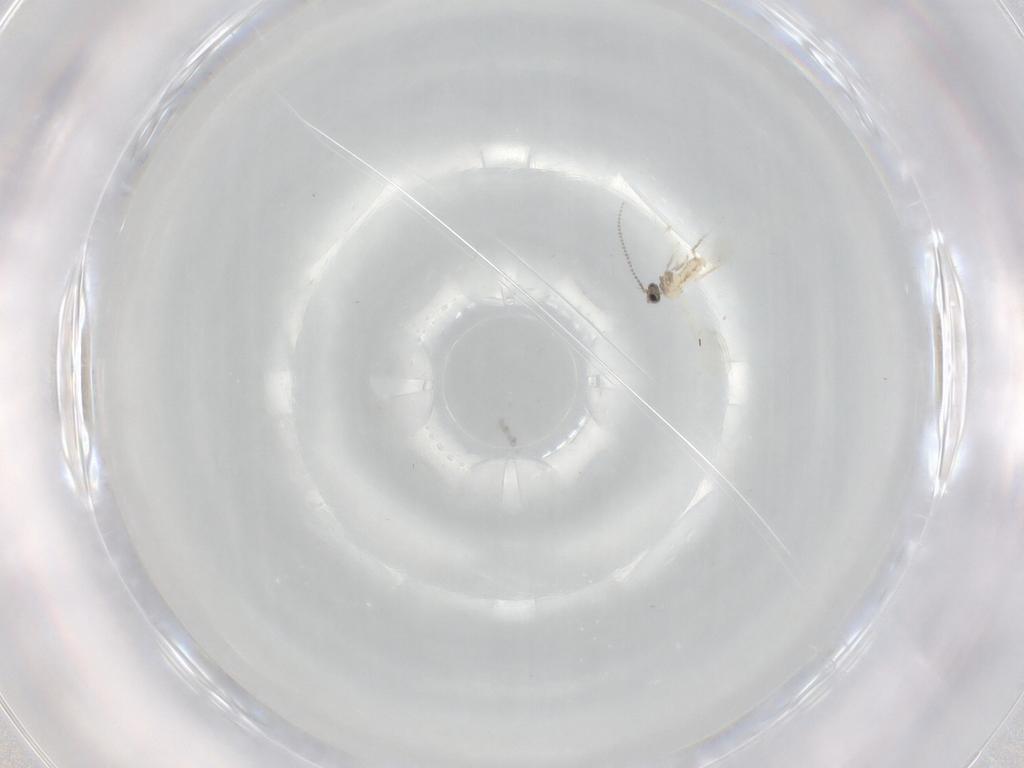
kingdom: Animalia
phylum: Arthropoda
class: Insecta
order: Diptera
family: Cecidomyiidae
